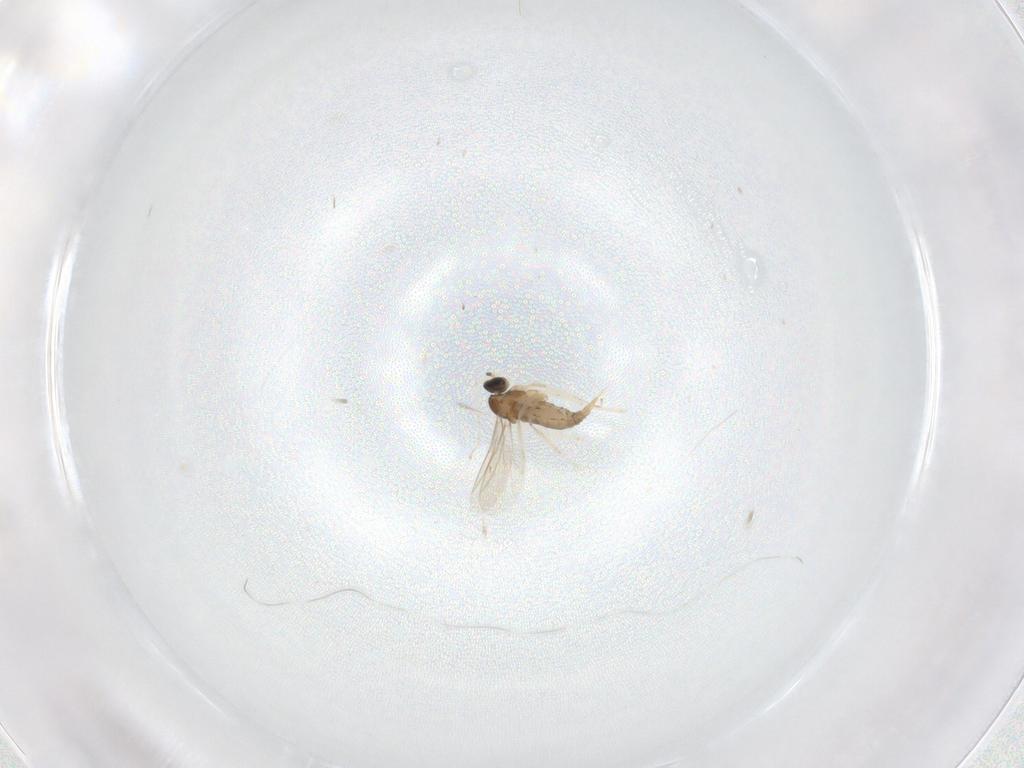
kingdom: Animalia
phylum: Arthropoda
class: Insecta
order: Diptera
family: Cecidomyiidae
